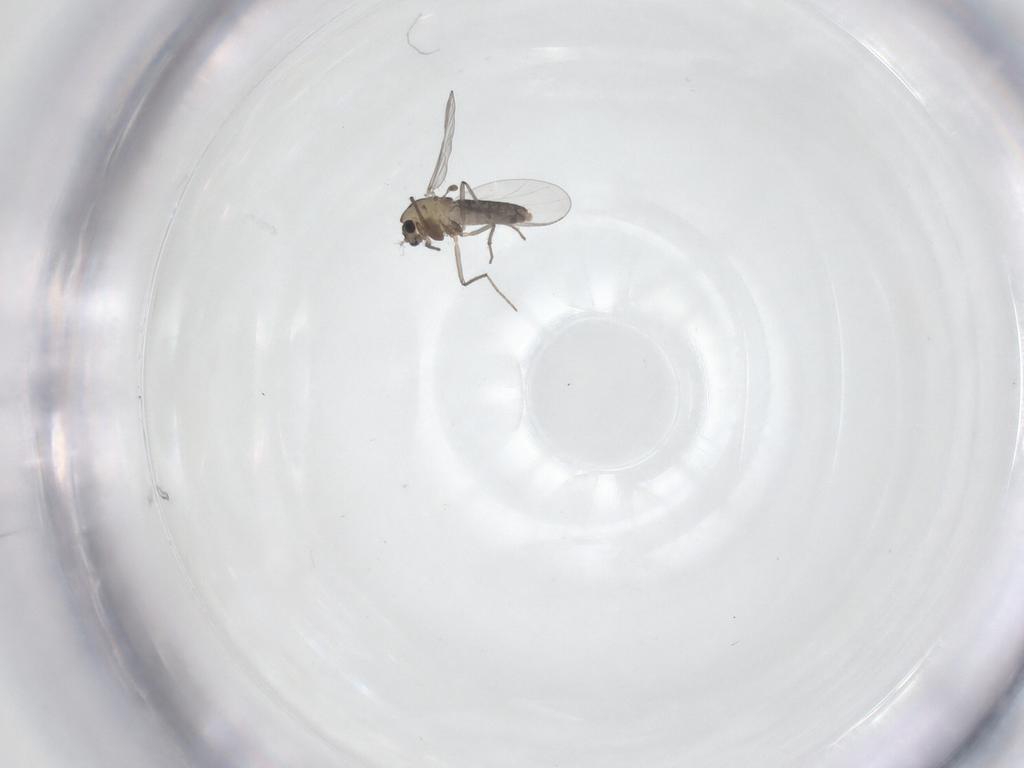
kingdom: Animalia
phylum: Arthropoda
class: Insecta
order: Diptera
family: Chironomidae
